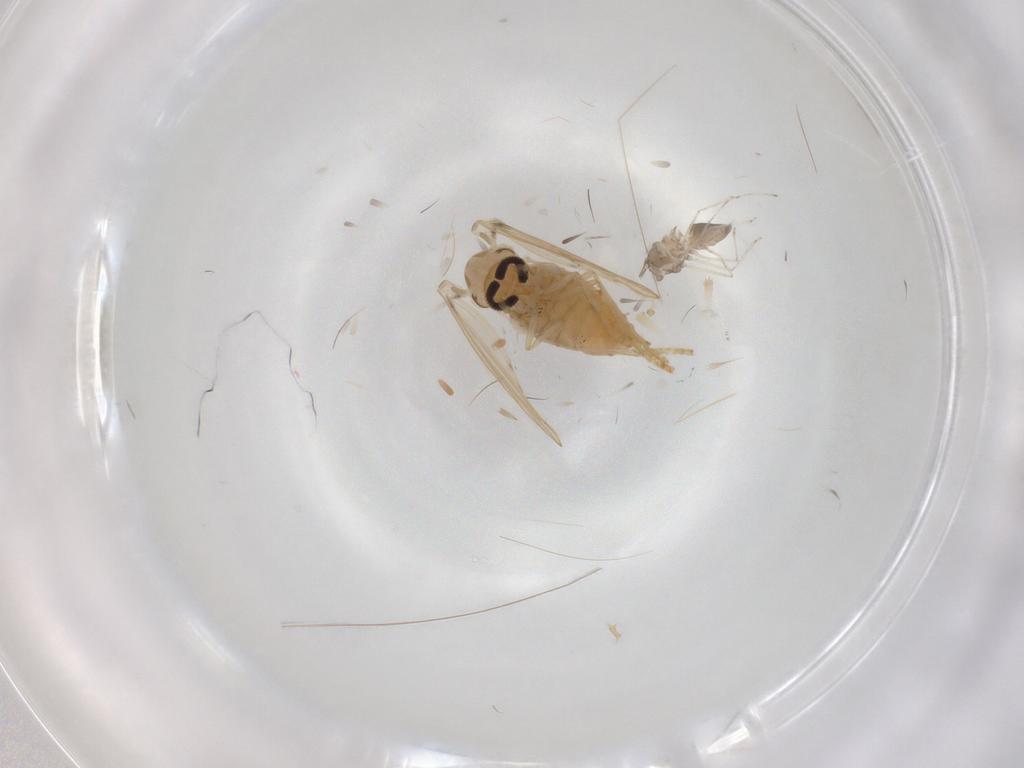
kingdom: Animalia
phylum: Arthropoda
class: Insecta
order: Diptera
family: Psychodidae
